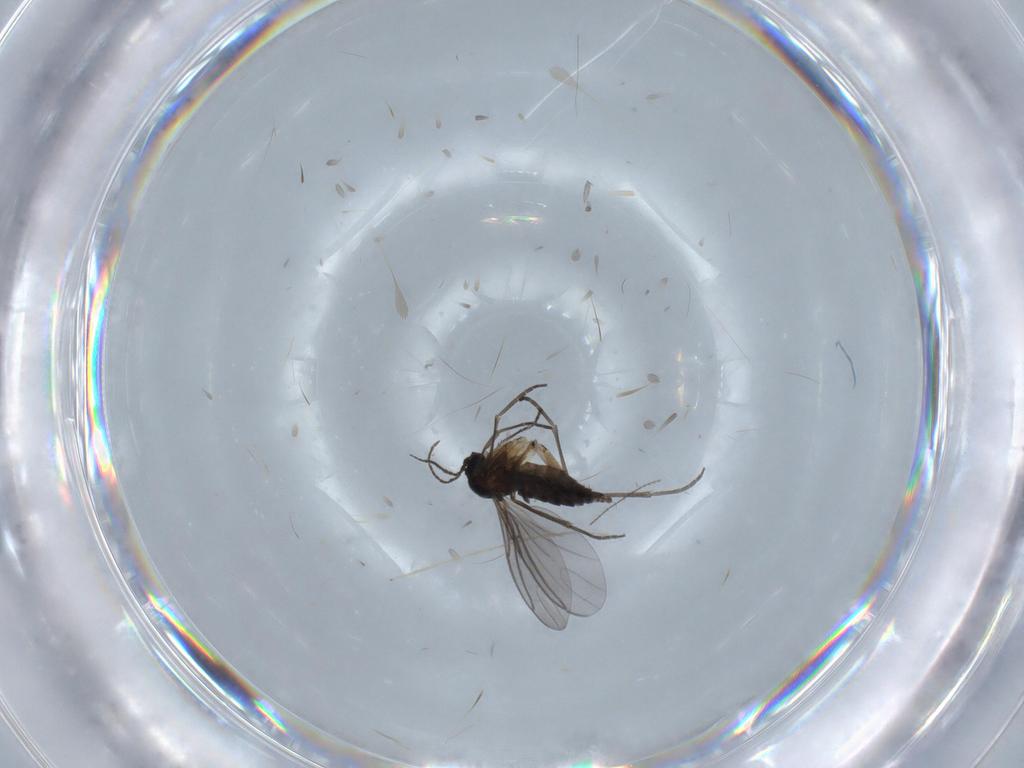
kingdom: Animalia
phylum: Arthropoda
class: Insecta
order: Diptera
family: Sciaridae
